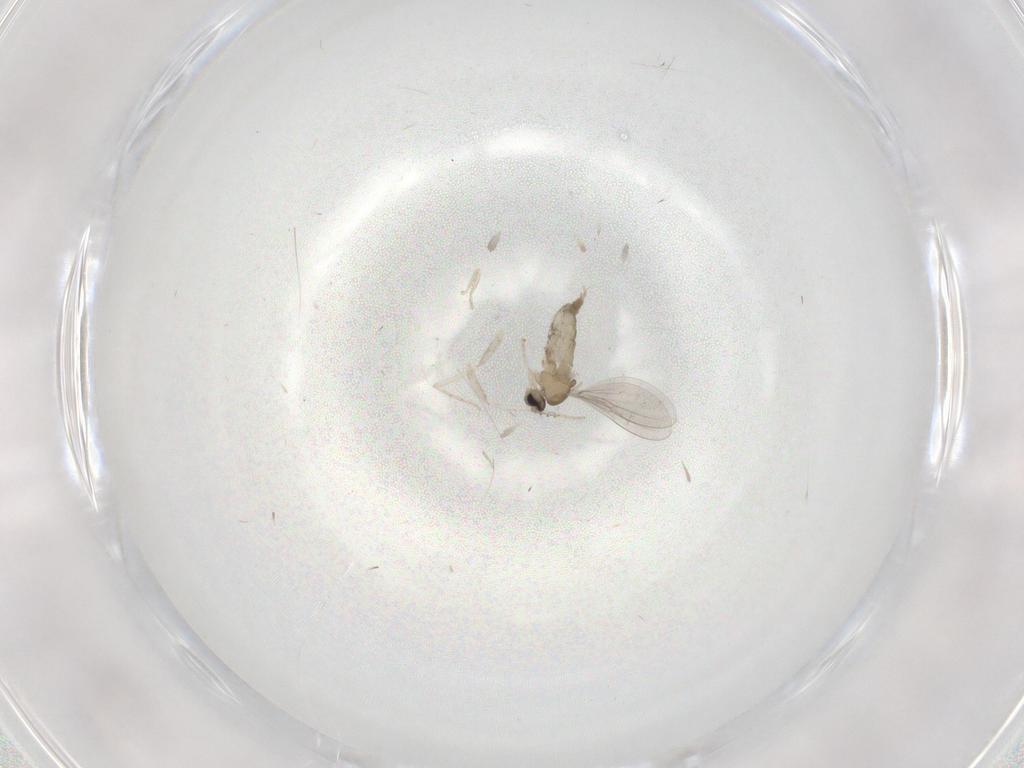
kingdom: Animalia
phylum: Arthropoda
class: Insecta
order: Diptera
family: Cecidomyiidae
